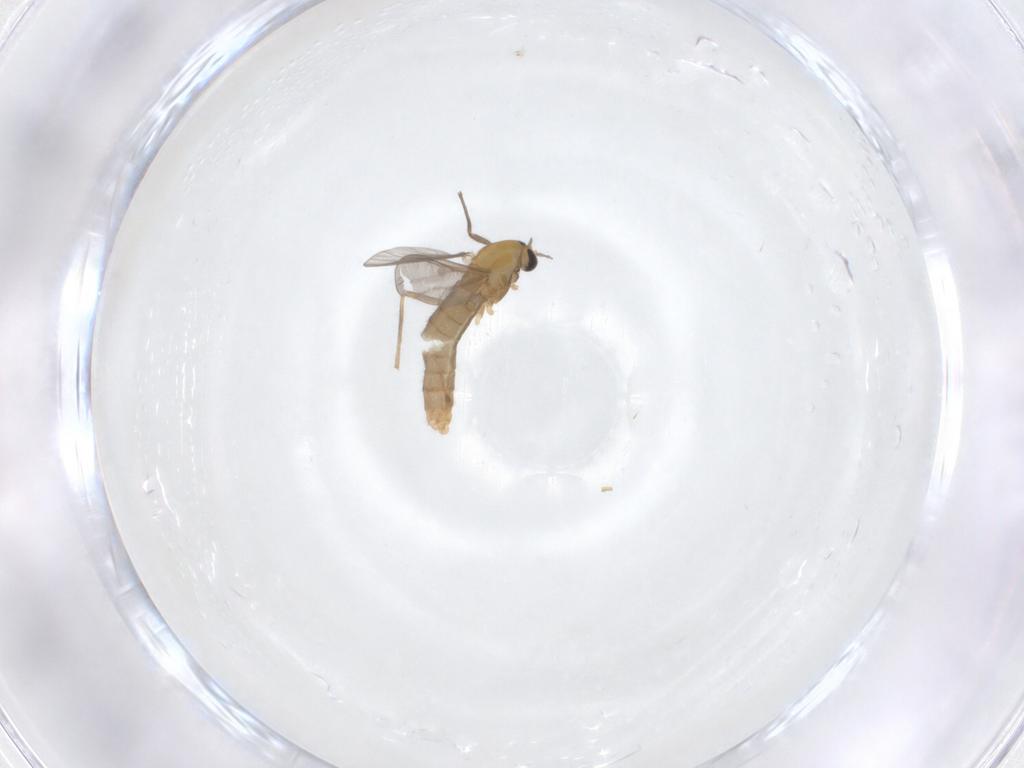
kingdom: Animalia
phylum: Arthropoda
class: Insecta
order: Diptera
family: Chironomidae
